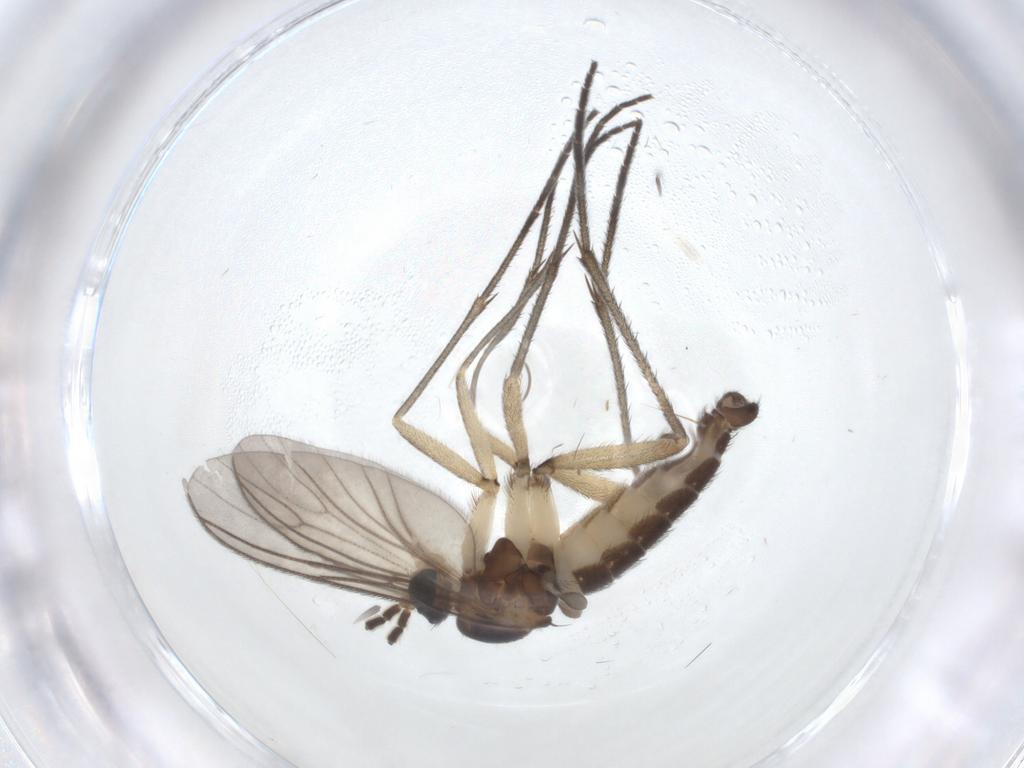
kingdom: Animalia
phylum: Arthropoda
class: Insecta
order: Diptera
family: Sciaridae
